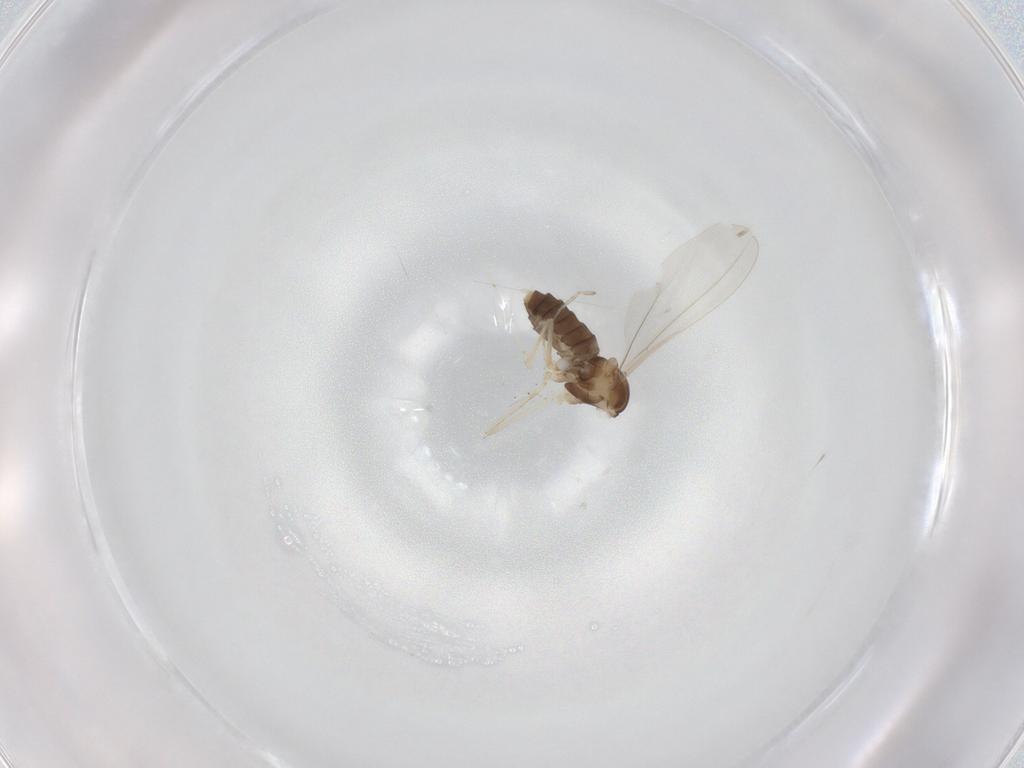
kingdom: Animalia
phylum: Arthropoda
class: Insecta
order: Diptera
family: Cecidomyiidae
